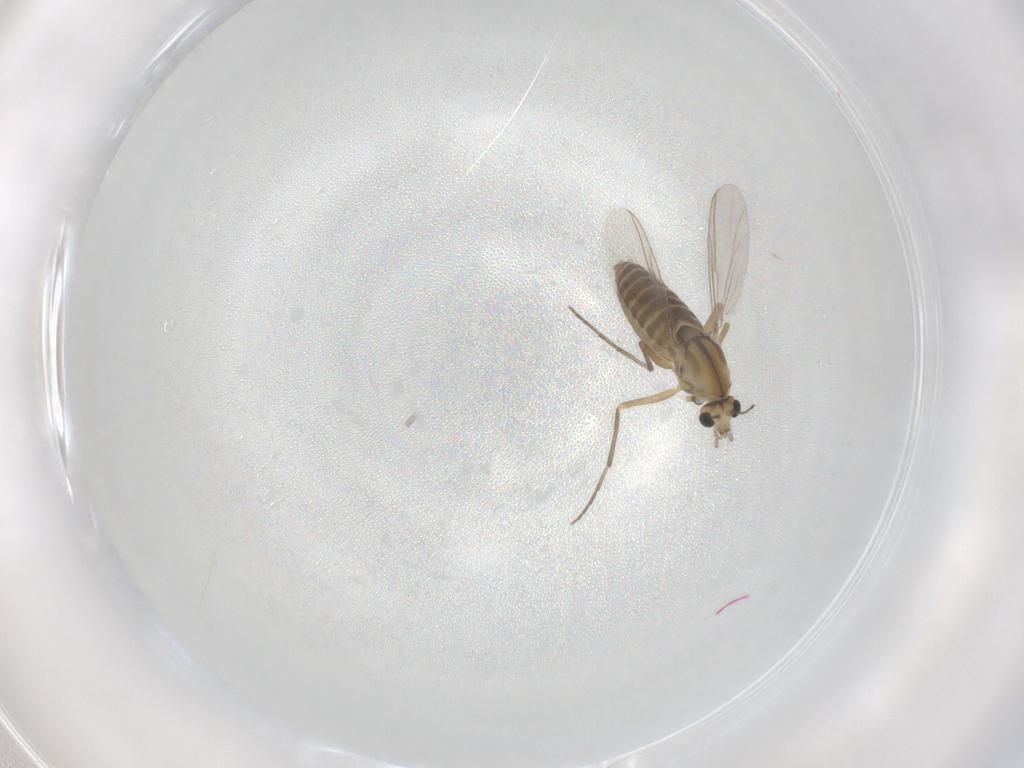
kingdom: Animalia
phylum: Arthropoda
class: Insecta
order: Diptera
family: Chironomidae
